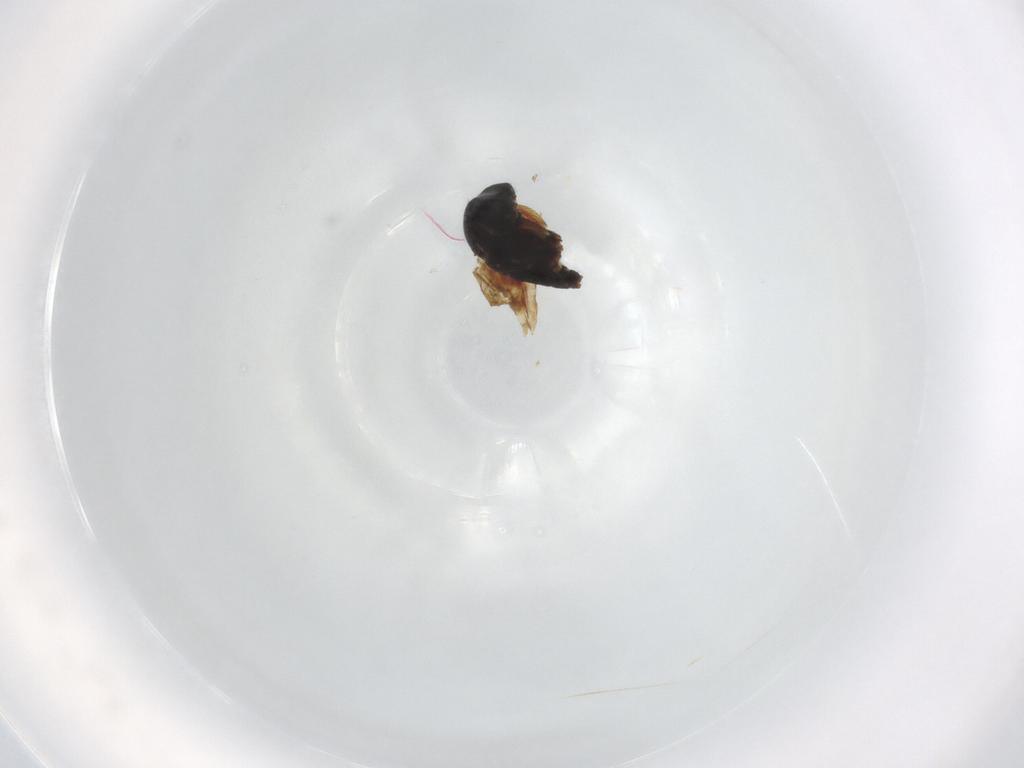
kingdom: Animalia
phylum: Arthropoda
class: Insecta
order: Diptera
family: Phoridae
